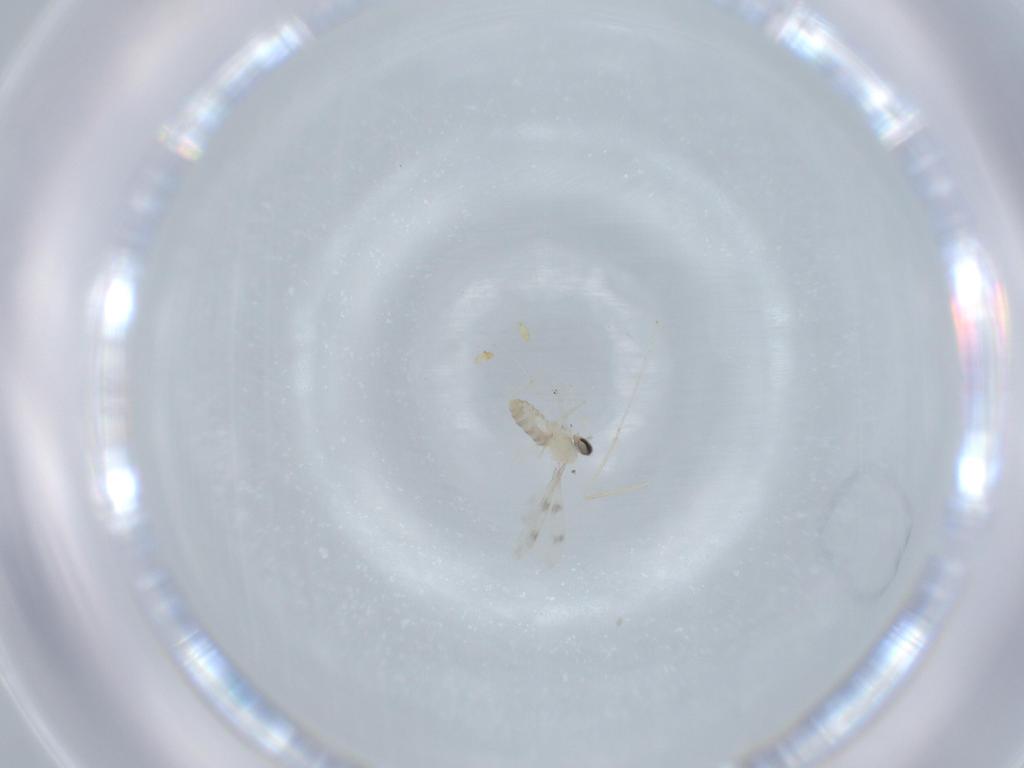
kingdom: Animalia
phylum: Arthropoda
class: Insecta
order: Diptera
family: Cecidomyiidae
